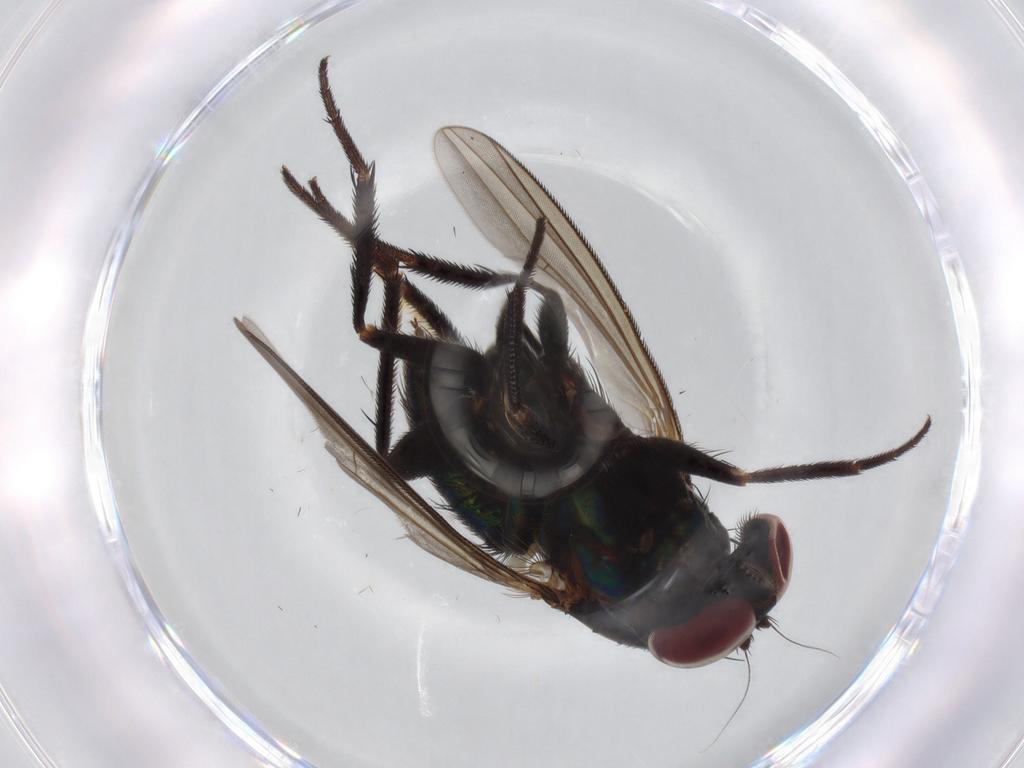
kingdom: Animalia
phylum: Arthropoda
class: Insecta
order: Diptera
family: Dolichopodidae
